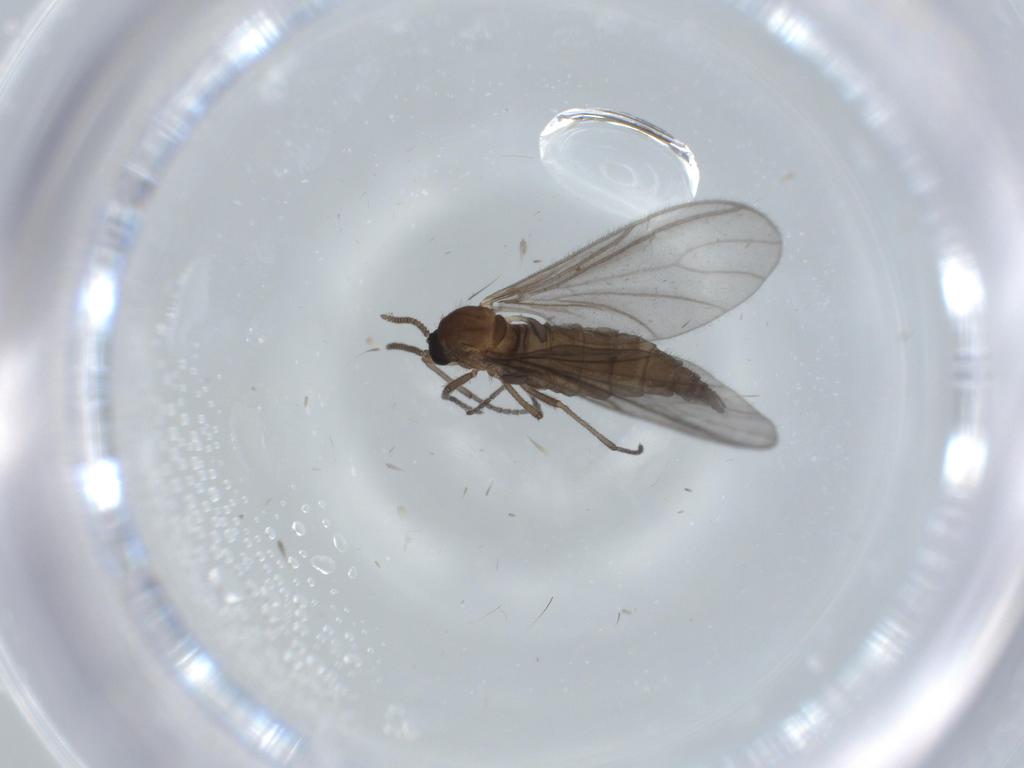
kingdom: Animalia
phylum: Arthropoda
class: Insecta
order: Diptera
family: Sciaridae
